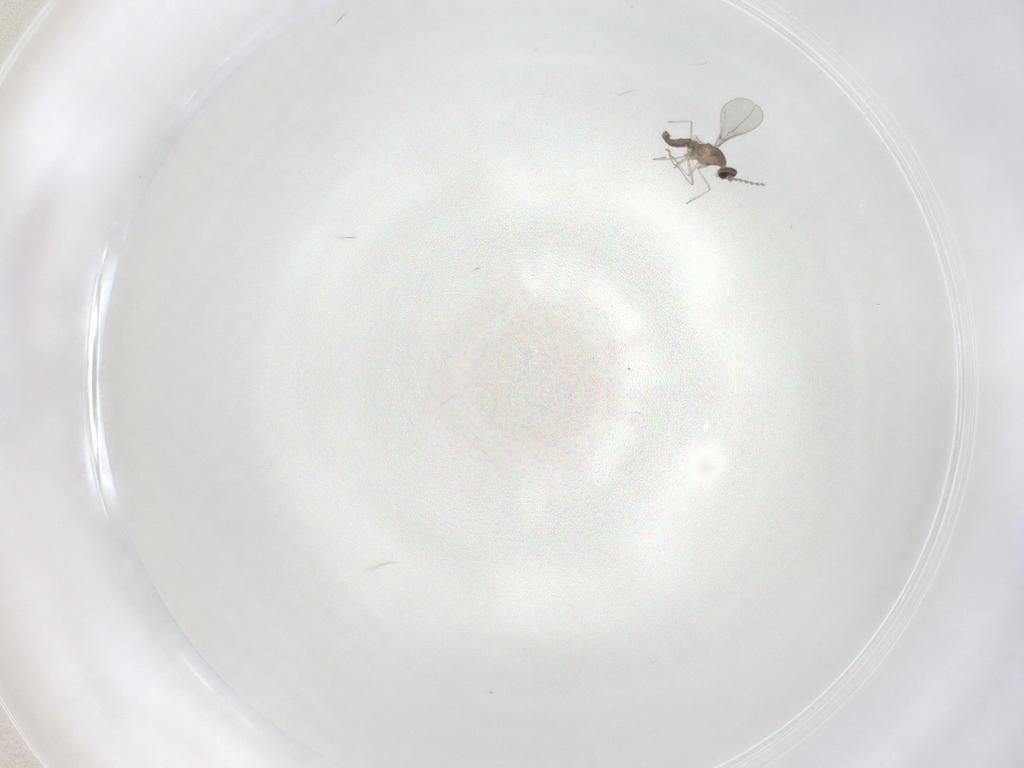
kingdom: Animalia
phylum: Arthropoda
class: Insecta
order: Diptera
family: Cecidomyiidae
